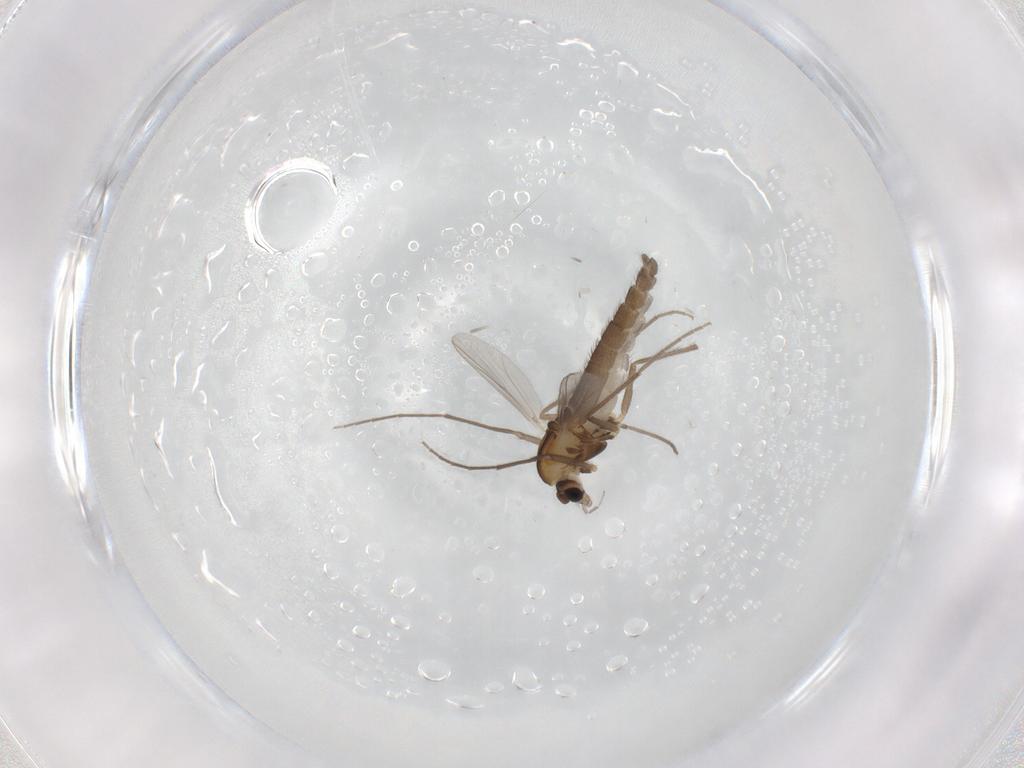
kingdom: Animalia
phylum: Arthropoda
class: Insecta
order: Diptera
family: Chironomidae
